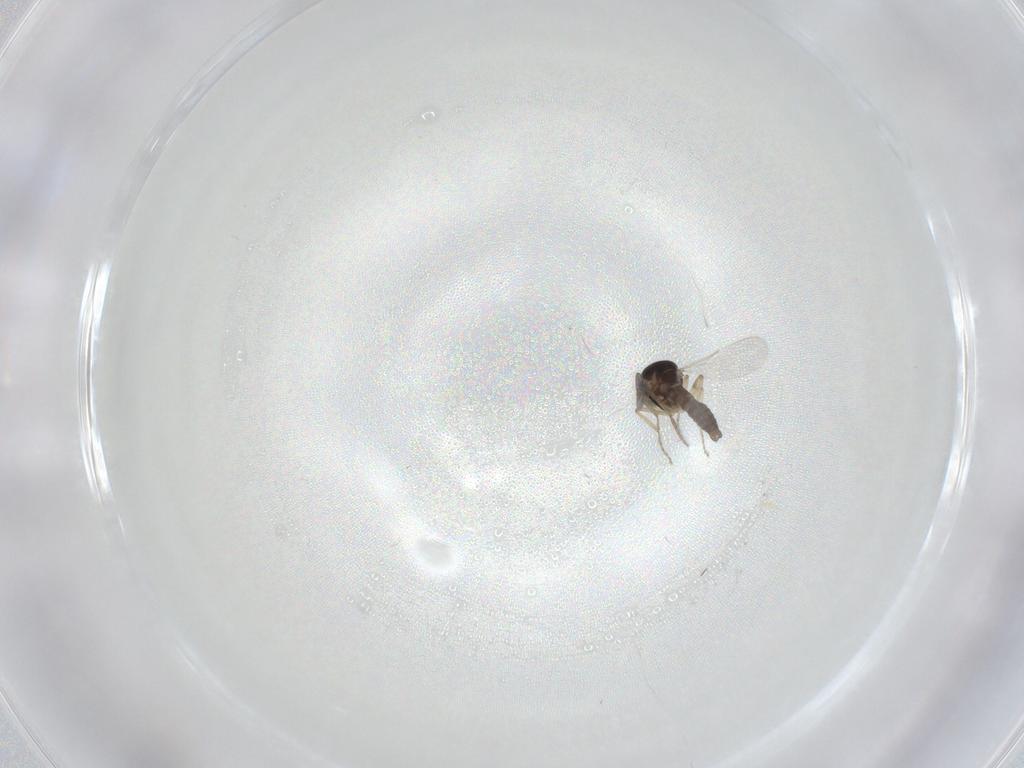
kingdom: Animalia
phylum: Arthropoda
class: Insecta
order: Diptera
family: Ceratopogonidae
